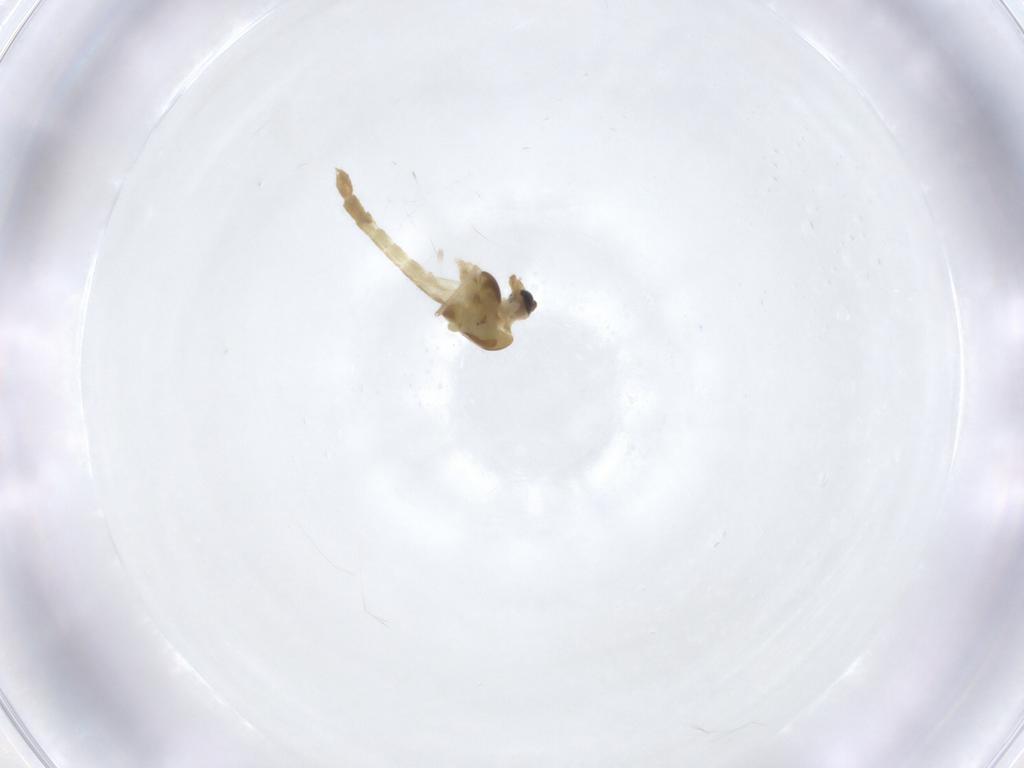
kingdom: Animalia
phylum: Arthropoda
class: Insecta
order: Diptera
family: Chironomidae
